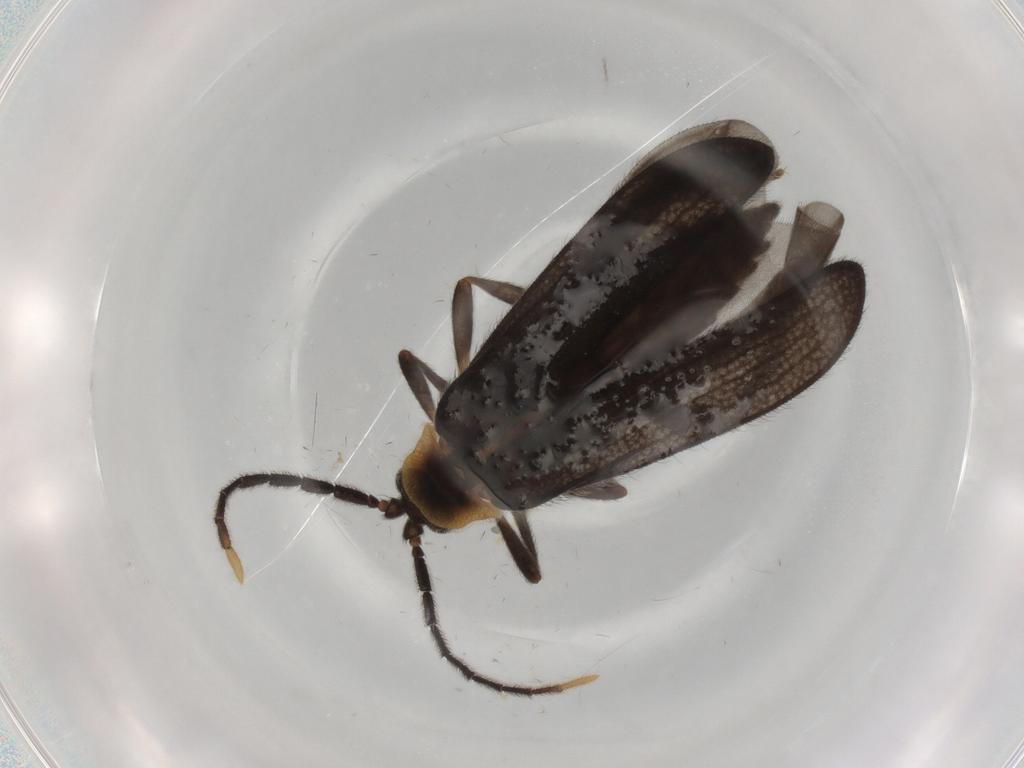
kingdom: Animalia
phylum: Arthropoda
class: Insecta
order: Coleoptera
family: Lycidae
